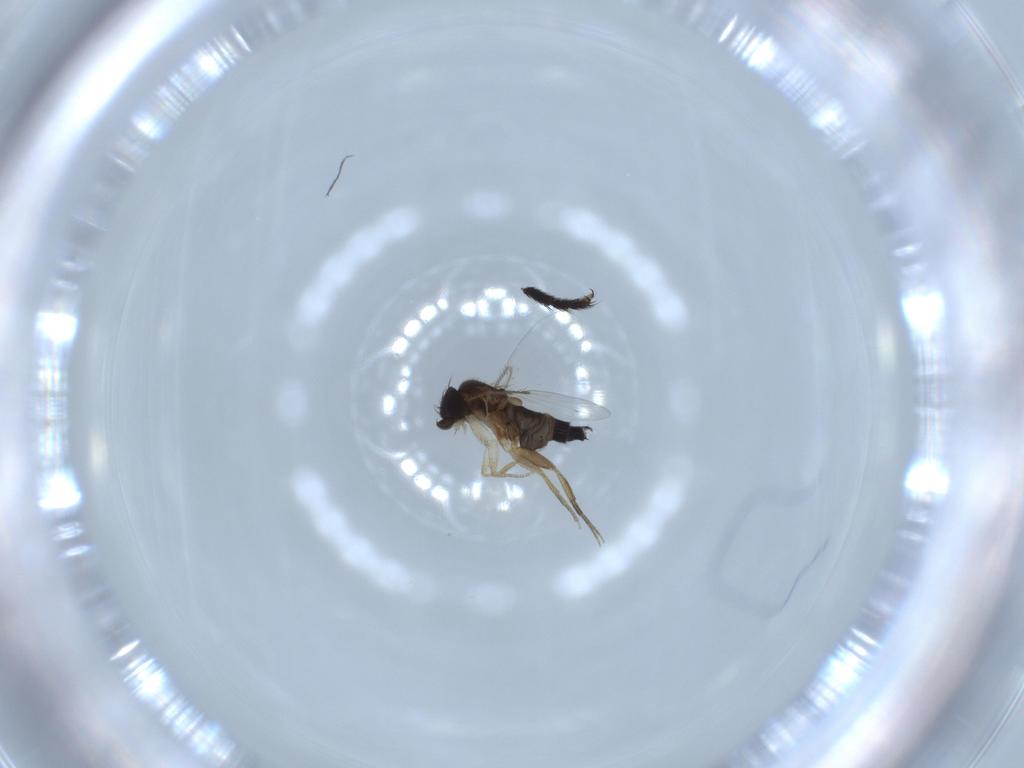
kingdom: Animalia
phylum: Arthropoda
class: Insecta
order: Diptera
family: Phoridae
